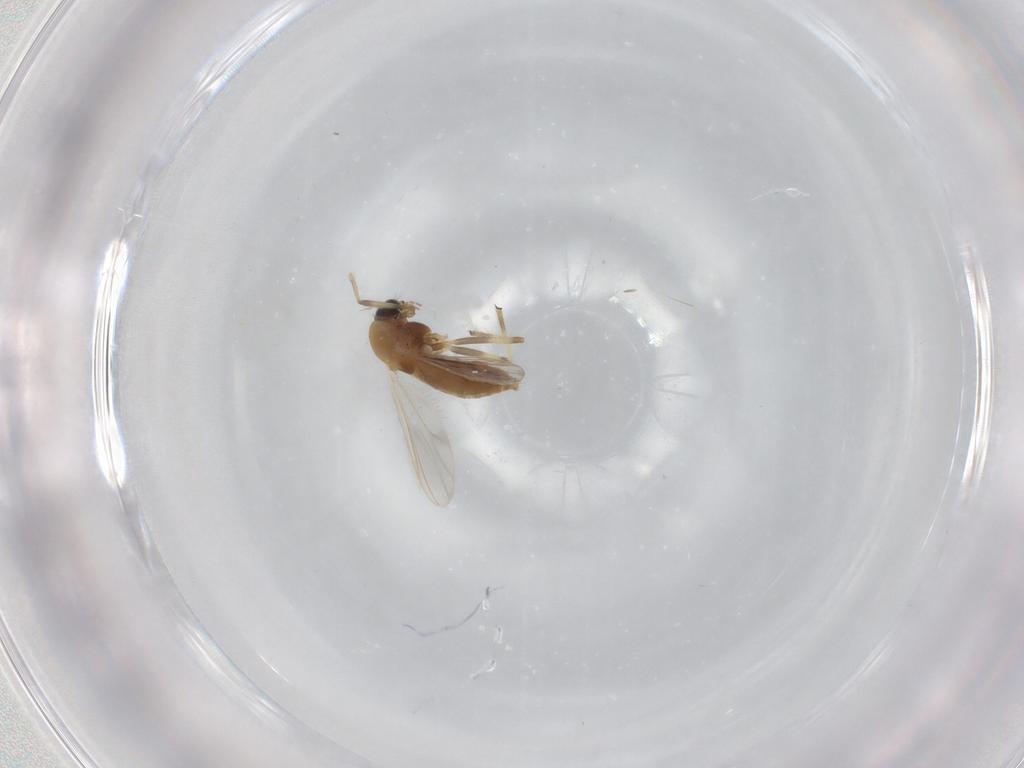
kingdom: Animalia
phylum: Arthropoda
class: Insecta
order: Diptera
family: Chironomidae
